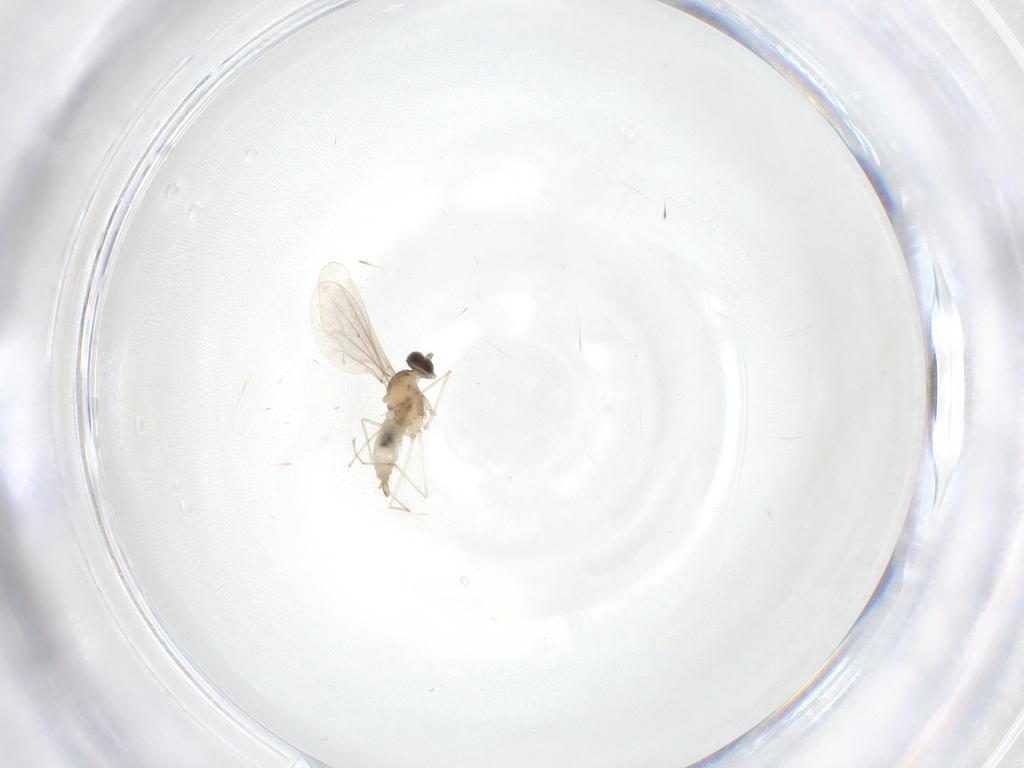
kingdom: Animalia
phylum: Arthropoda
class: Insecta
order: Diptera
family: Cecidomyiidae
